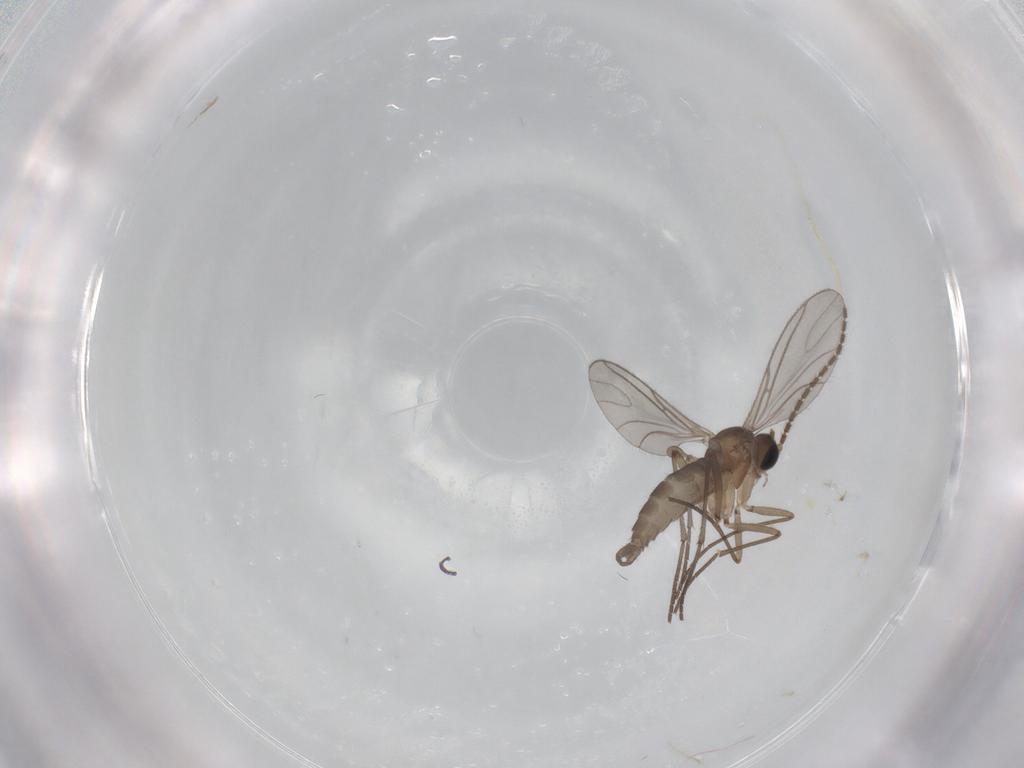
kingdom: Animalia
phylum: Arthropoda
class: Insecta
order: Diptera
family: Sciaridae
